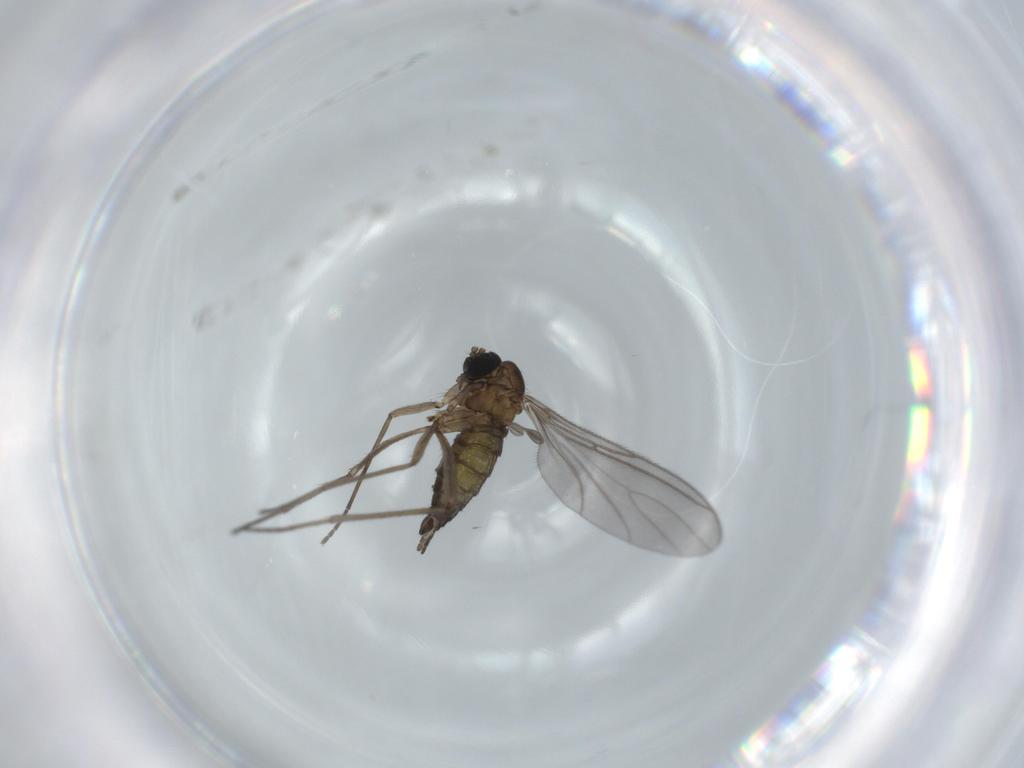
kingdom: Animalia
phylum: Arthropoda
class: Insecta
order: Diptera
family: Sciaridae
